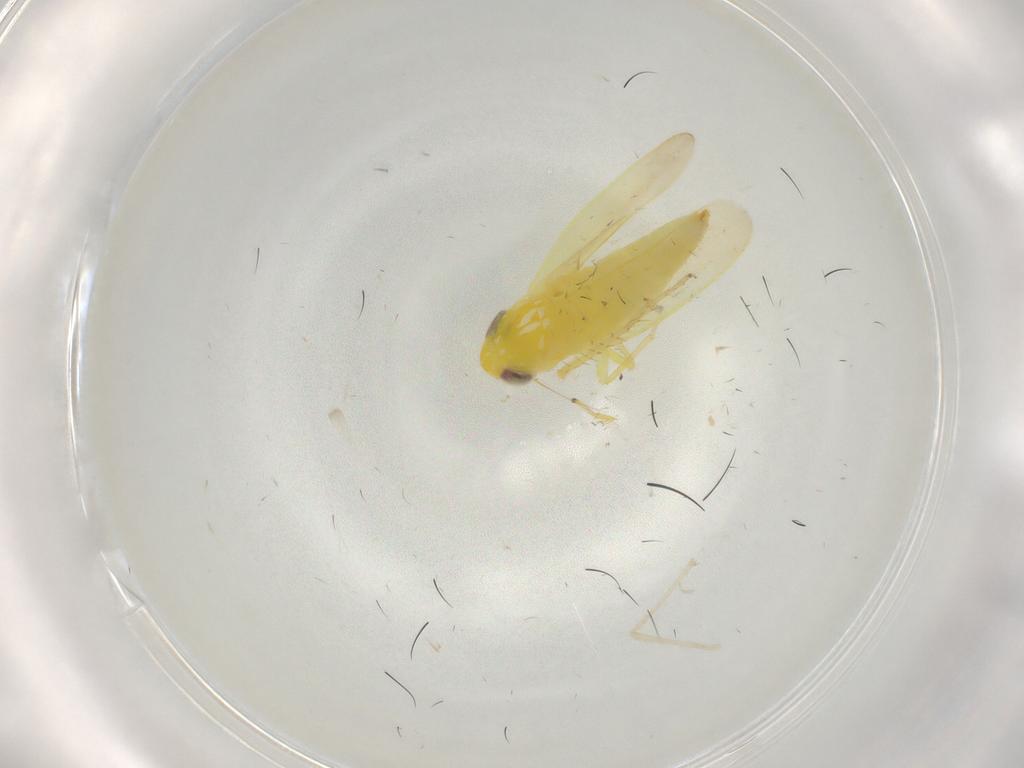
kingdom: Animalia
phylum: Arthropoda
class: Insecta
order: Hemiptera
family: Cicadellidae
